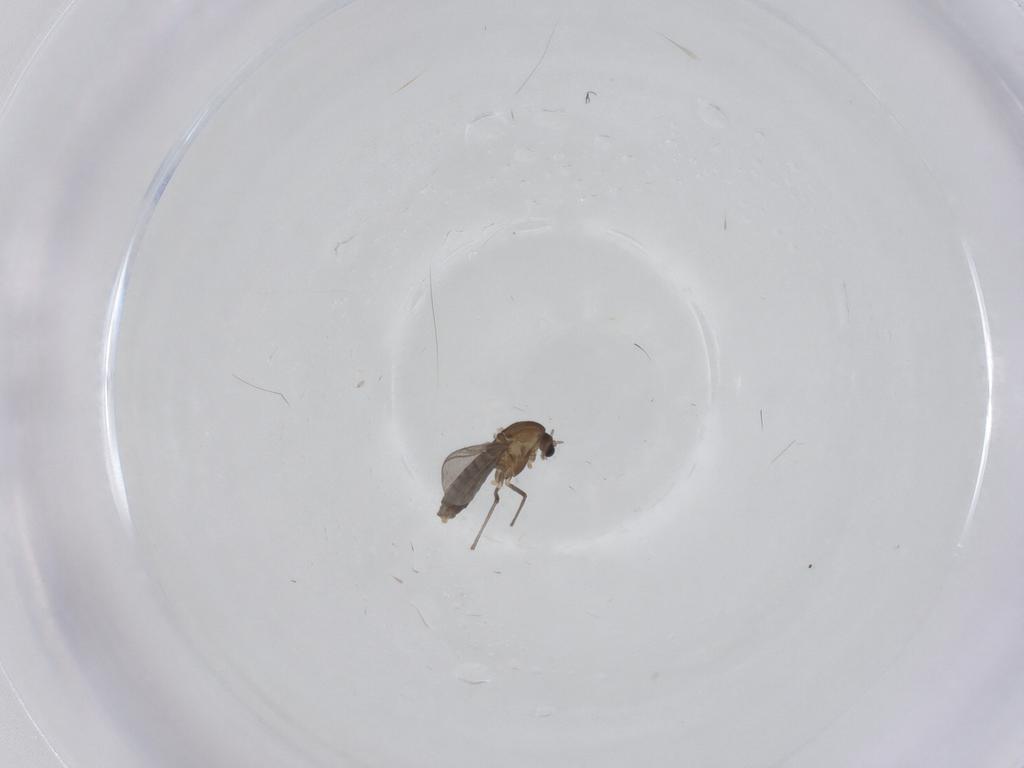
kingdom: Animalia
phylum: Arthropoda
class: Insecta
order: Diptera
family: Chironomidae
